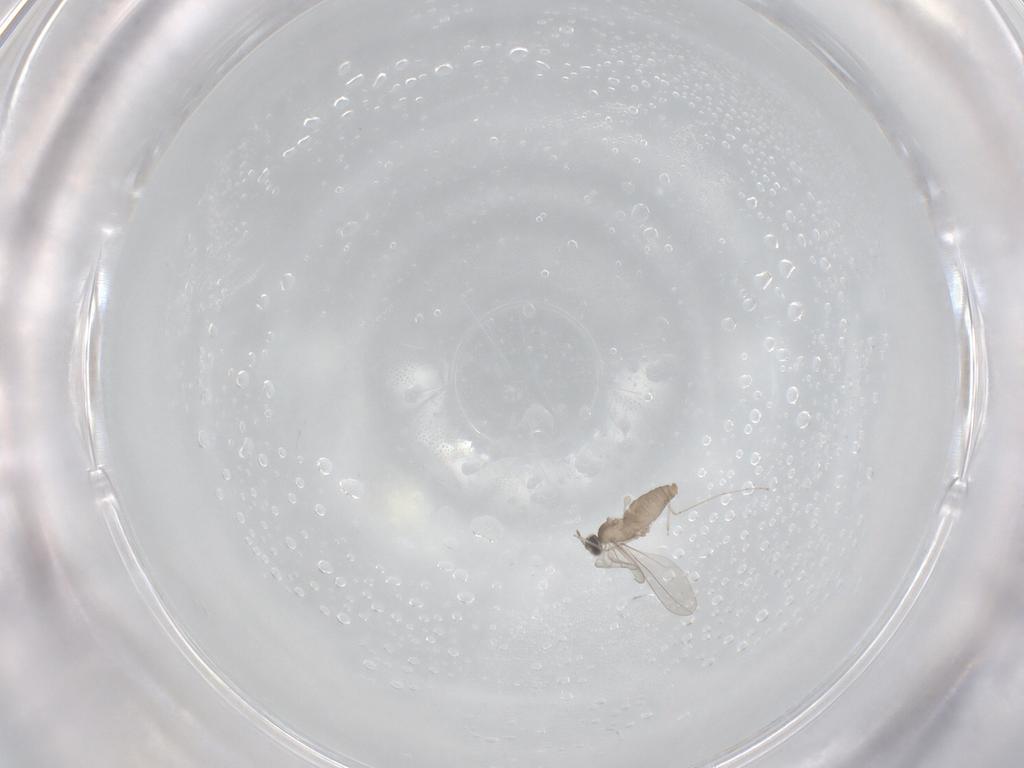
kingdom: Animalia
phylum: Arthropoda
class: Insecta
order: Diptera
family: Cecidomyiidae
